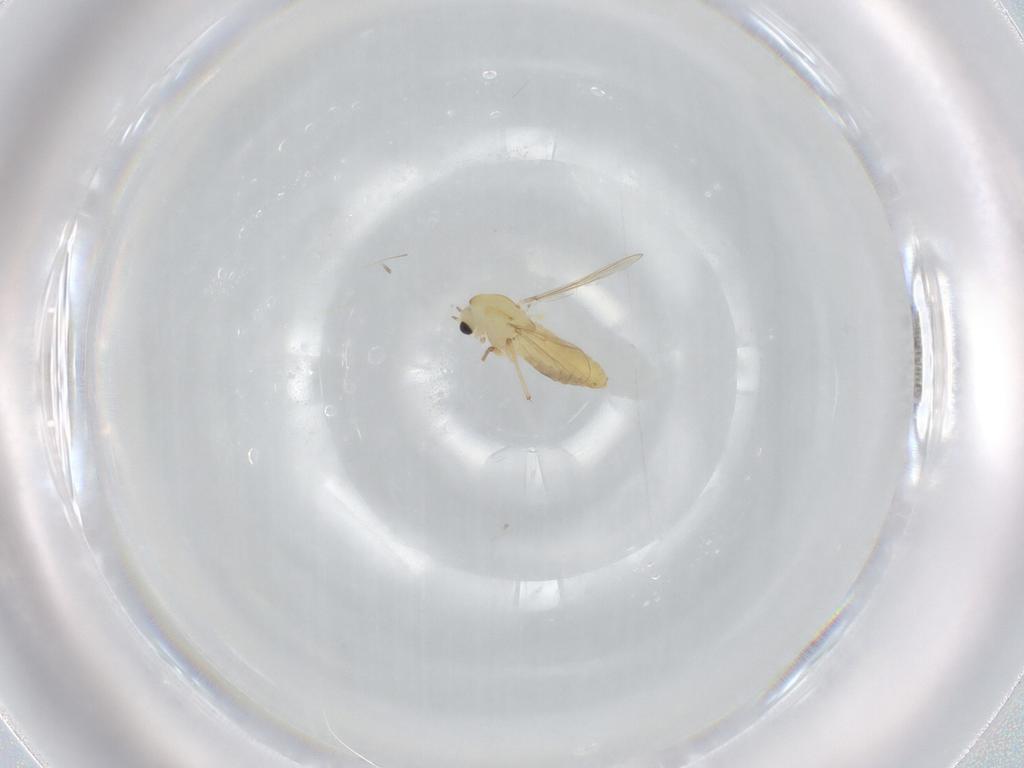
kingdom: Animalia
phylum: Arthropoda
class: Insecta
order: Diptera
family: Chironomidae
